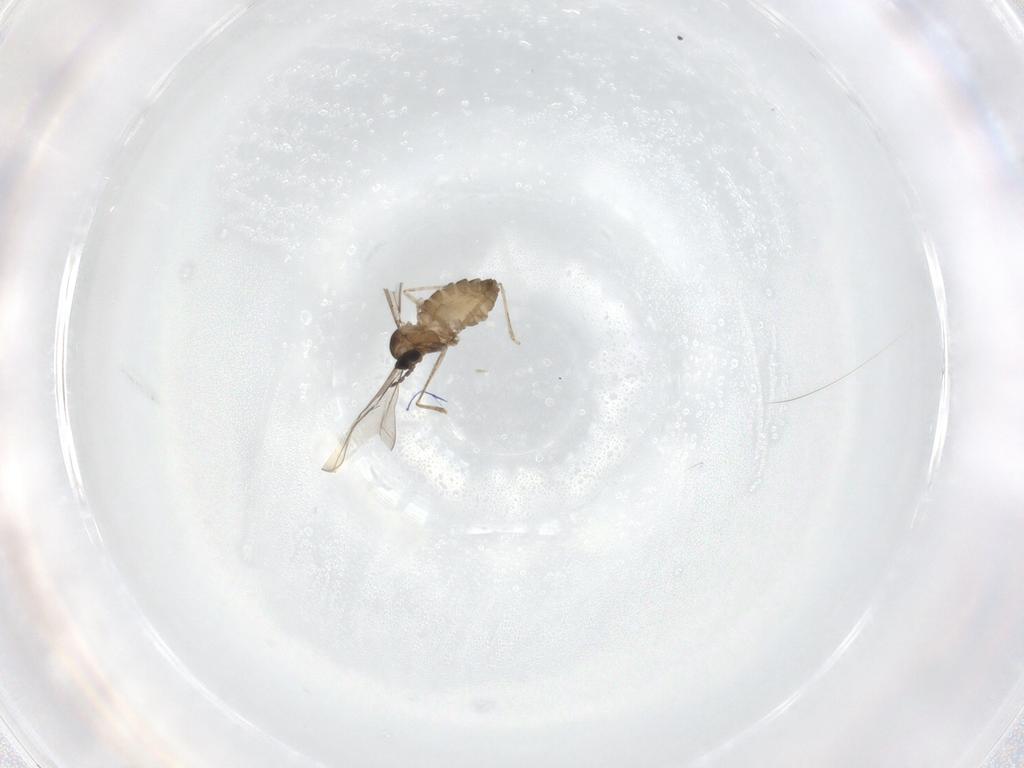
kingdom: Animalia
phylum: Arthropoda
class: Insecta
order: Diptera
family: Cecidomyiidae
